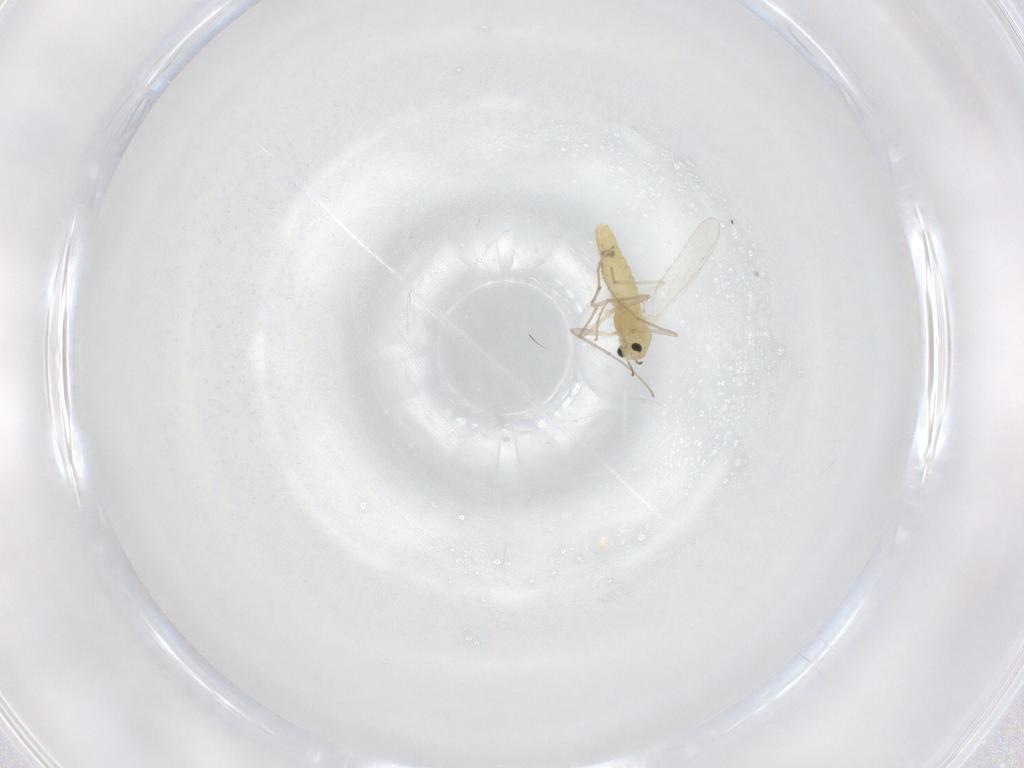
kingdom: Animalia
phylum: Arthropoda
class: Insecta
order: Diptera
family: Chironomidae
